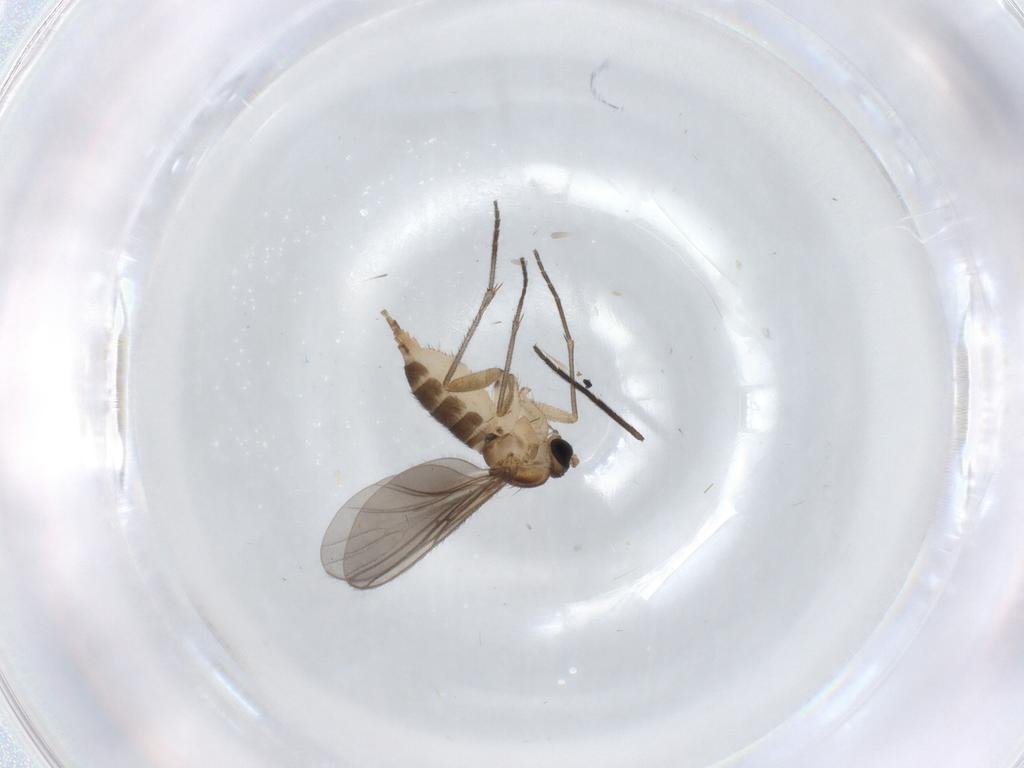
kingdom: Animalia
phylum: Arthropoda
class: Insecta
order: Diptera
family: Sciaridae
